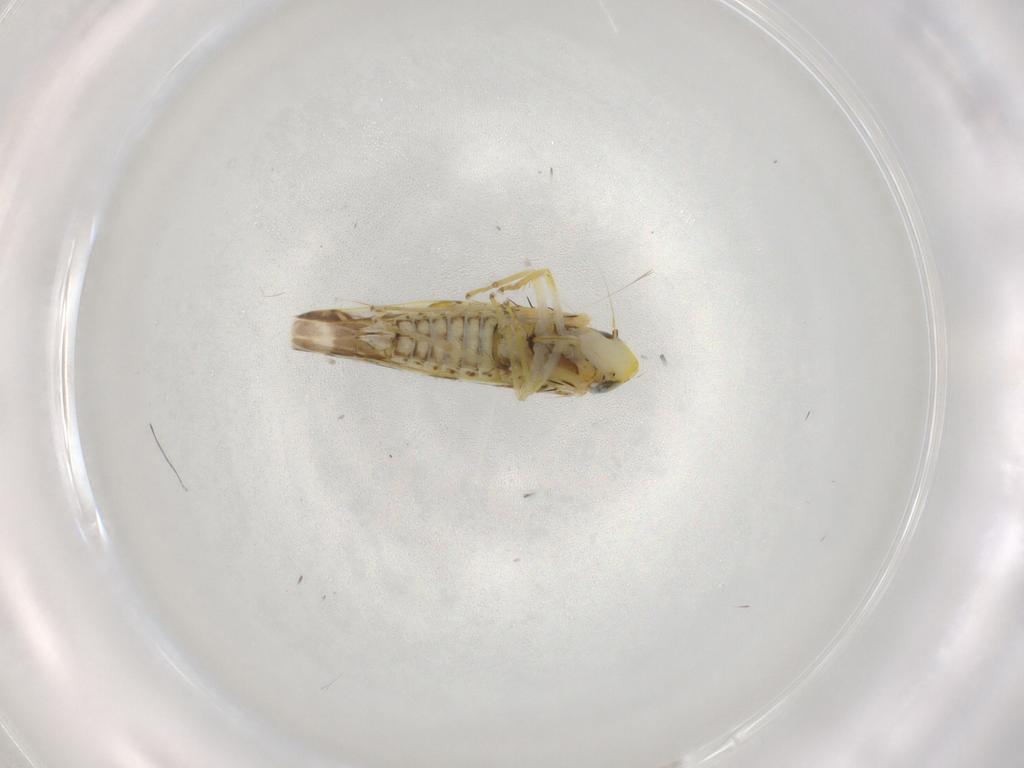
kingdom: Animalia
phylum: Arthropoda
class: Insecta
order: Hemiptera
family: Cicadellidae
